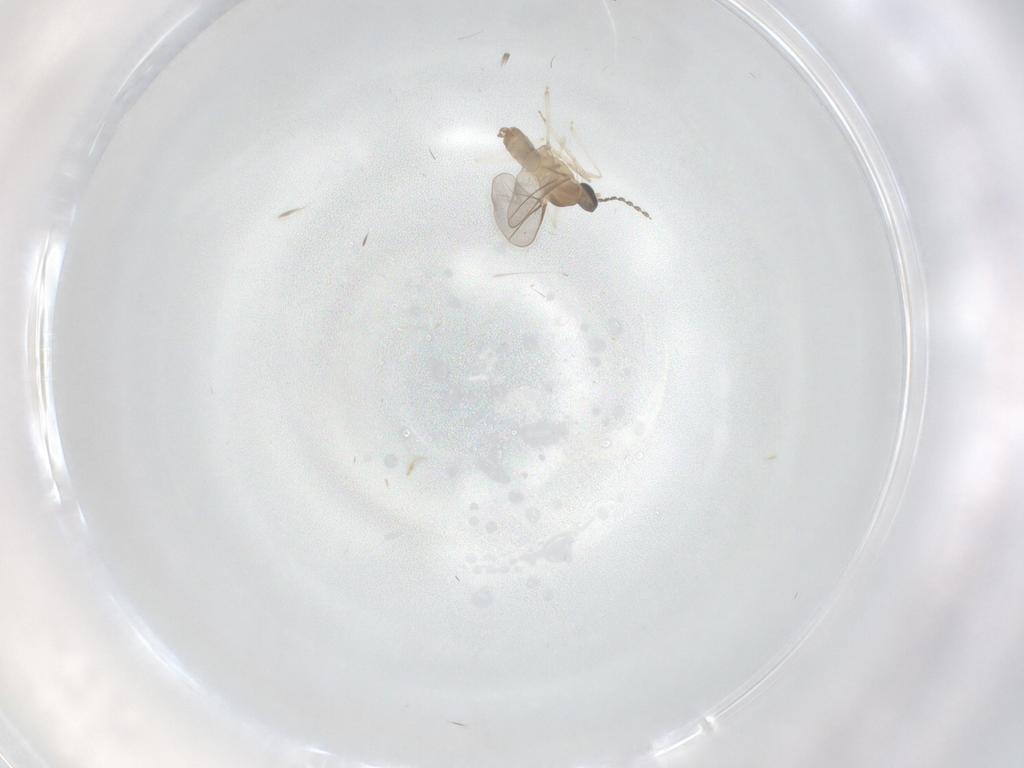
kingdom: Animalia
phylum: Arthropoda
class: Insecta
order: Diptera
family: Cecidomyiidae
